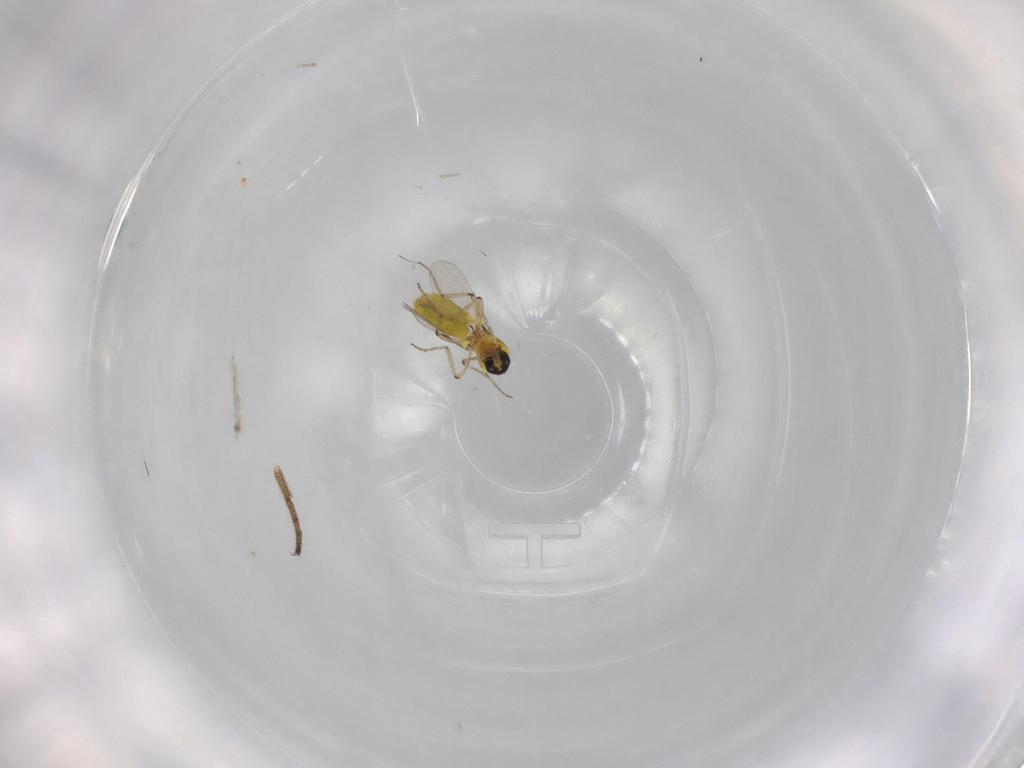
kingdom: Animalia
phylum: Arthropoda
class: Insecta
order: Diptera
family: Ceratopogonidae
